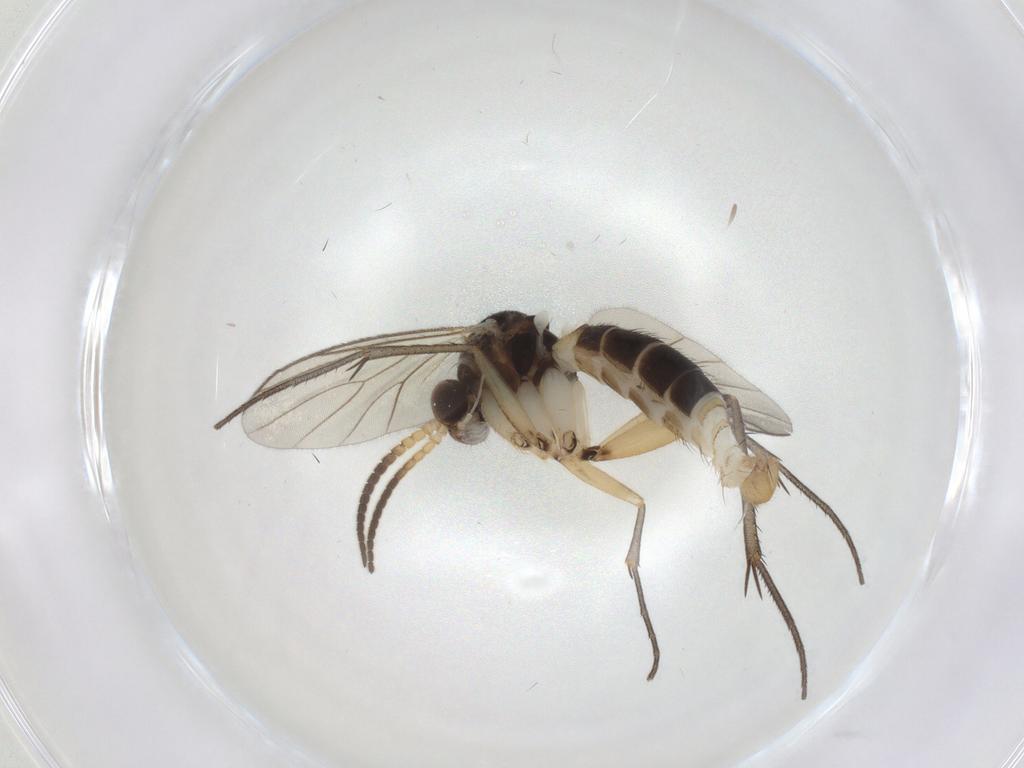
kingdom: Animalia
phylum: Arthropoda
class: Insecta
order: Diptera
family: Mycetophilidae
